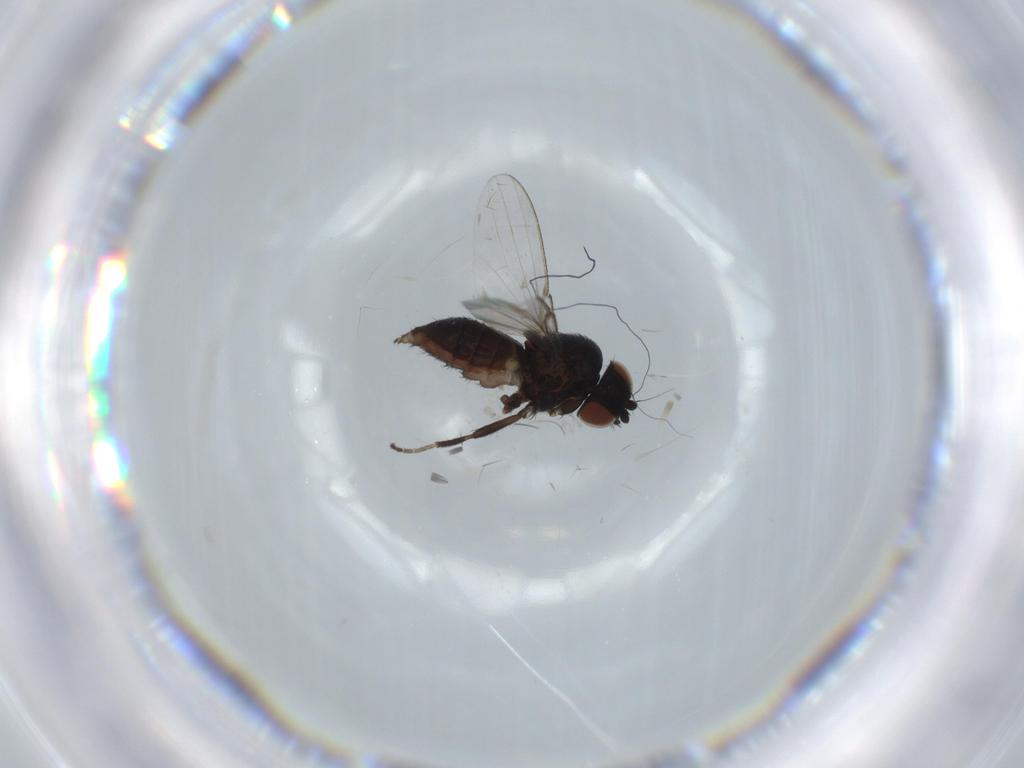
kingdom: Animalia
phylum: Arthropoda
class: Insecta
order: Diptera
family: Milichiidae
